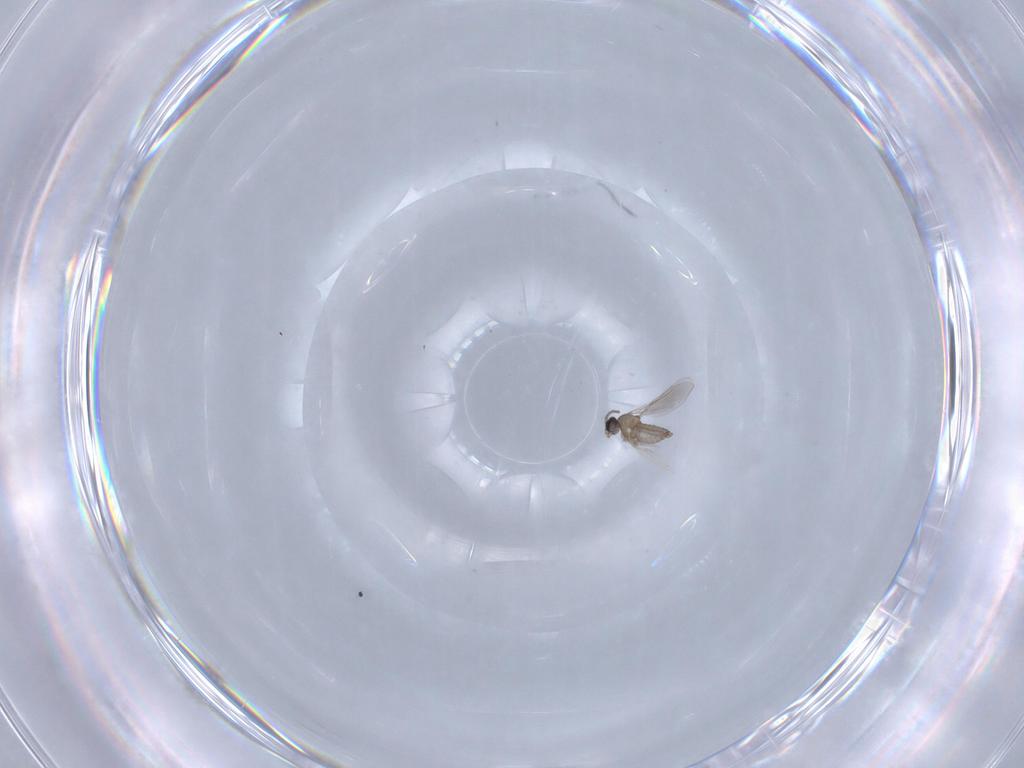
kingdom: Animalia
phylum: Arthropoda
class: Insecta
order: Diptera
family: Cecidomyiidae
